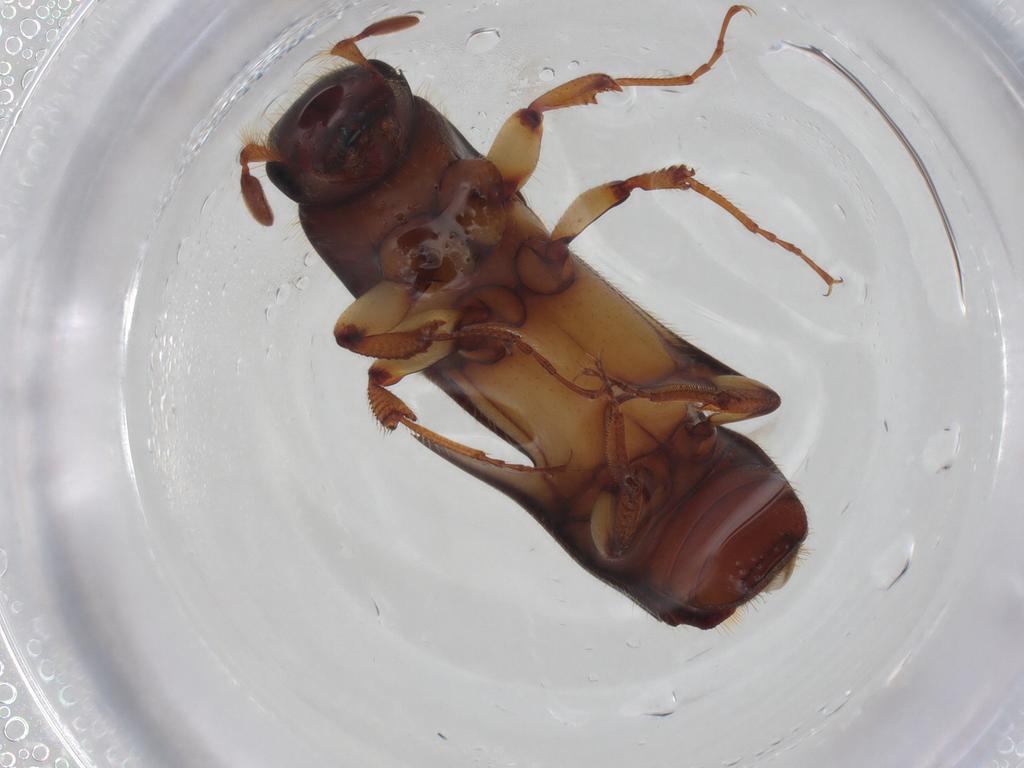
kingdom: Animalia
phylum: Arthropoda
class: Insecta
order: Coleoptera
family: Curculionidae
